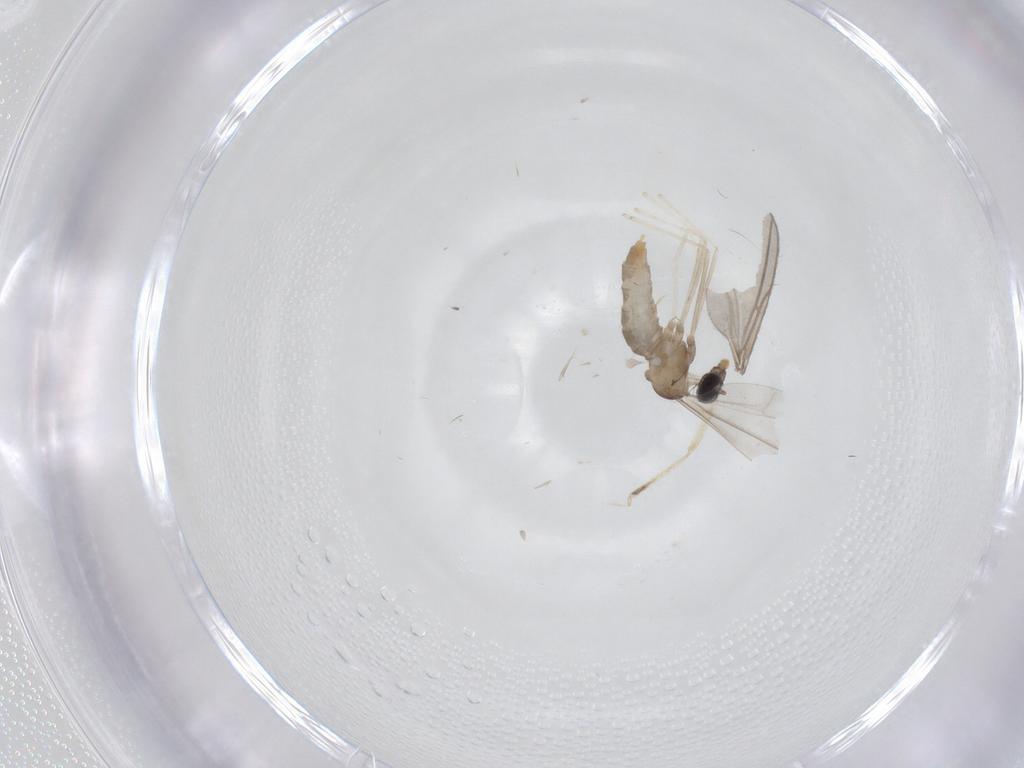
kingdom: Animalia
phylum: Arthropoda
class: Insecta
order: Diptera
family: Cecidomyiidae
